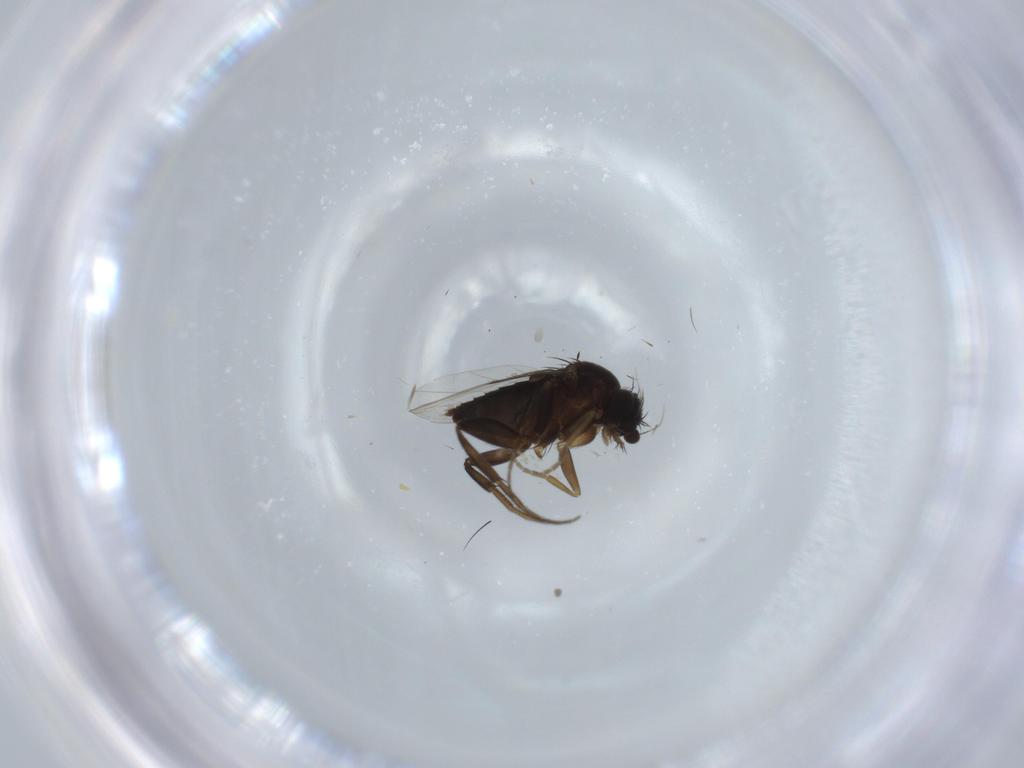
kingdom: Animalia
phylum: Arthropoda
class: Insecta
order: Diptera
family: Phoridae
